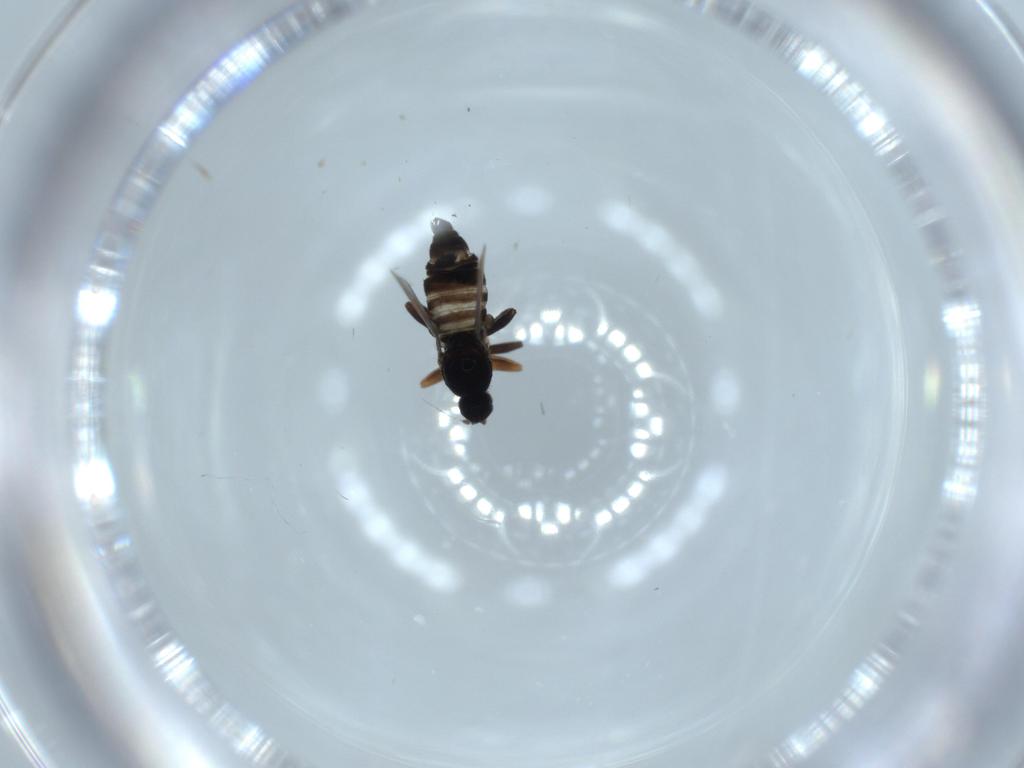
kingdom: Animalia
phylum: Arthropoda
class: Insecta
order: Diptera
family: Hybotidae
